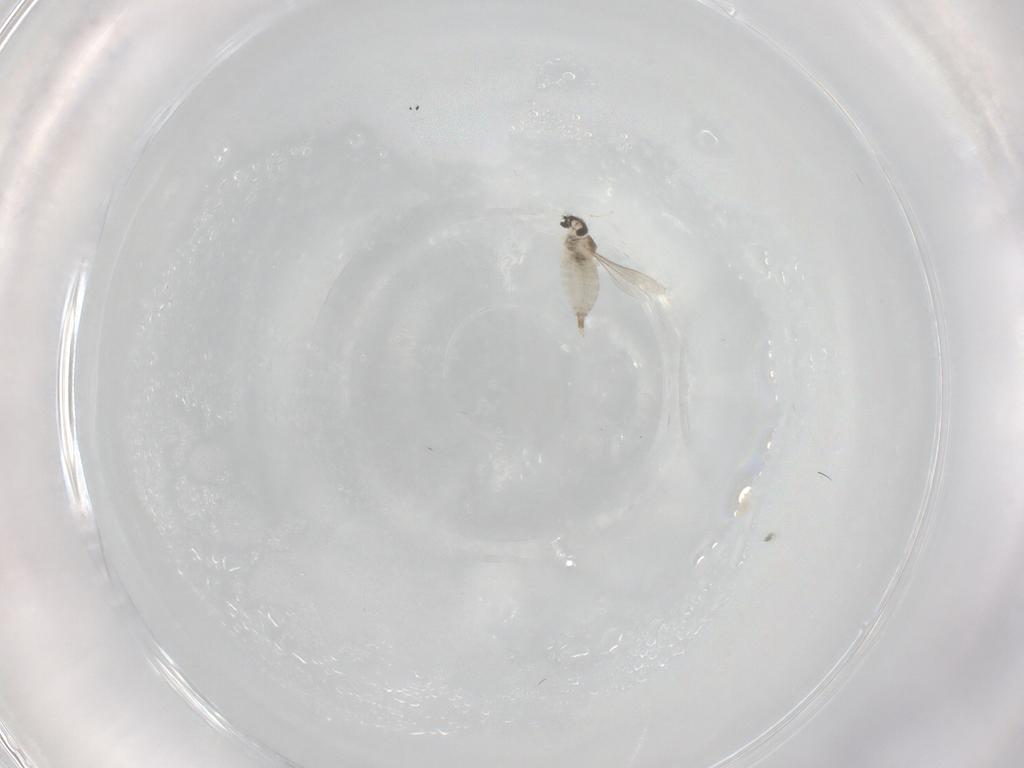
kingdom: Animalia
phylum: Arthropoda
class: Insecta
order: Diptera
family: Cecidomyiidae
